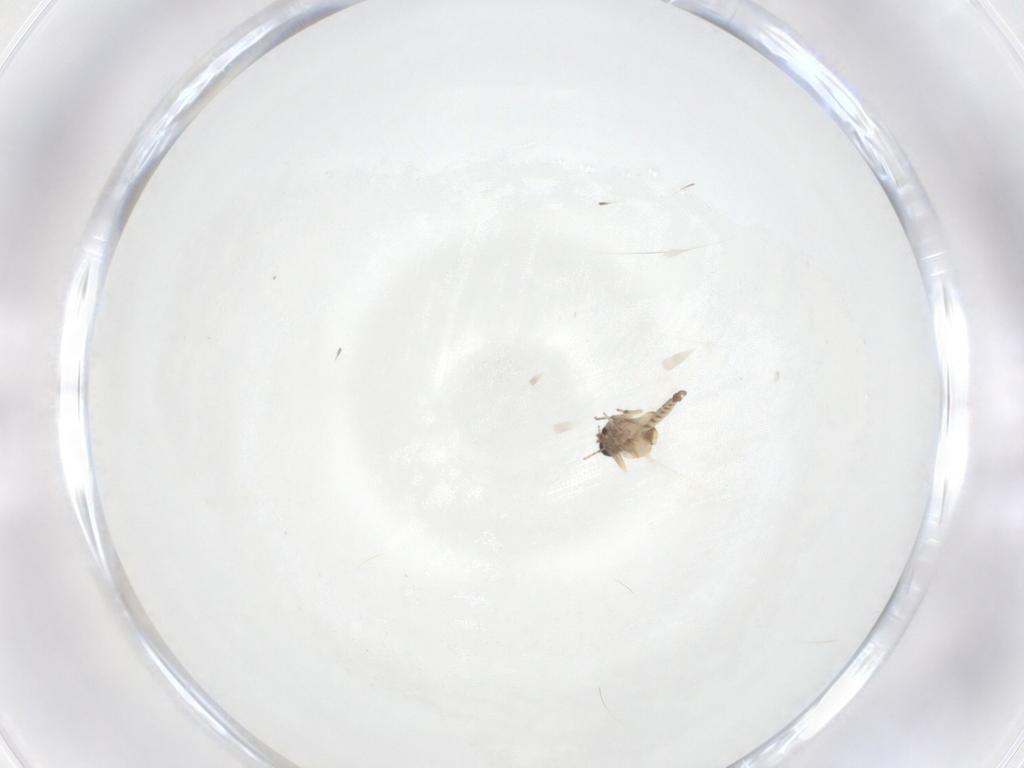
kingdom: Animalia
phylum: Arthropoda
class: Insecta
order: Diptera
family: Ceratopogonidae
